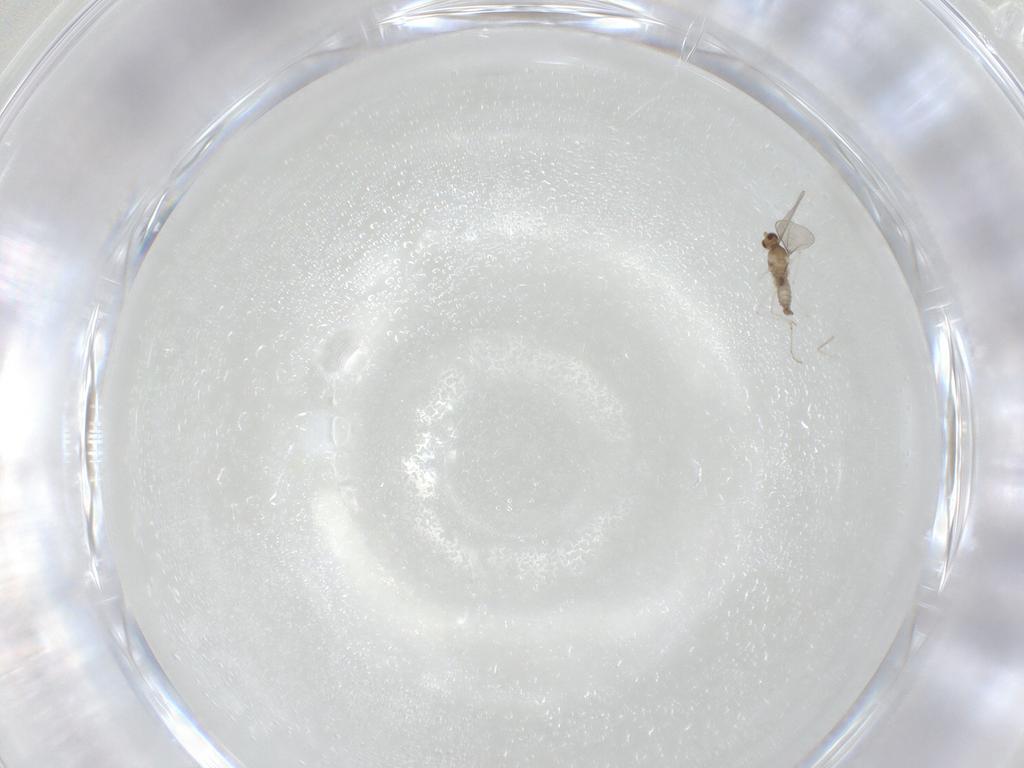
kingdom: Animalia
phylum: Arthropoda
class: Insecta
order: Diptera
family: Cecidomyiidae
